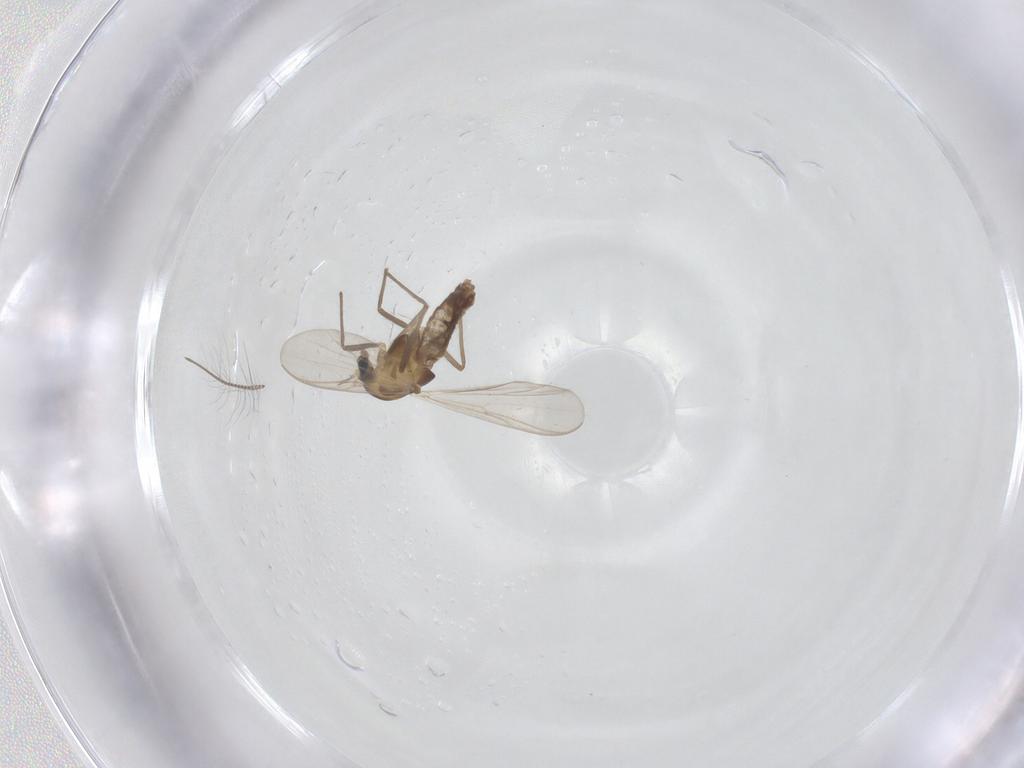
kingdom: Animalia
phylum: Arthropoda
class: Insecta
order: Diptera
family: Chironomidae
